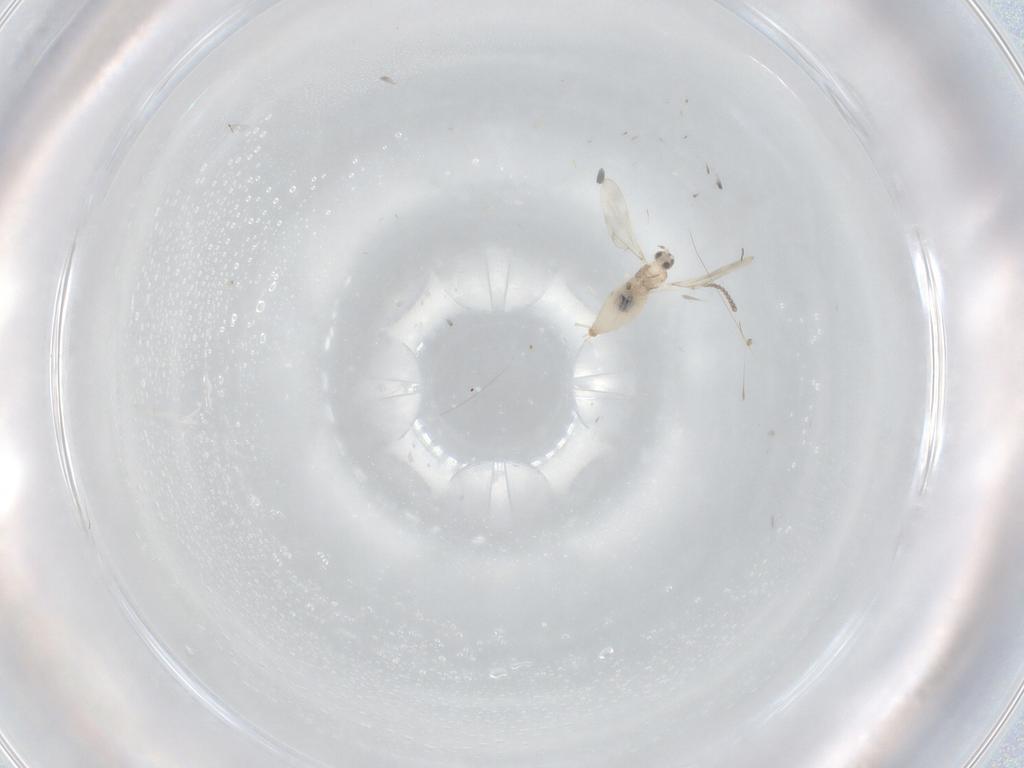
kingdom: Animalia
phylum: Arthropoda
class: Insecta
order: Diptera
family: Cecidomyiidae
